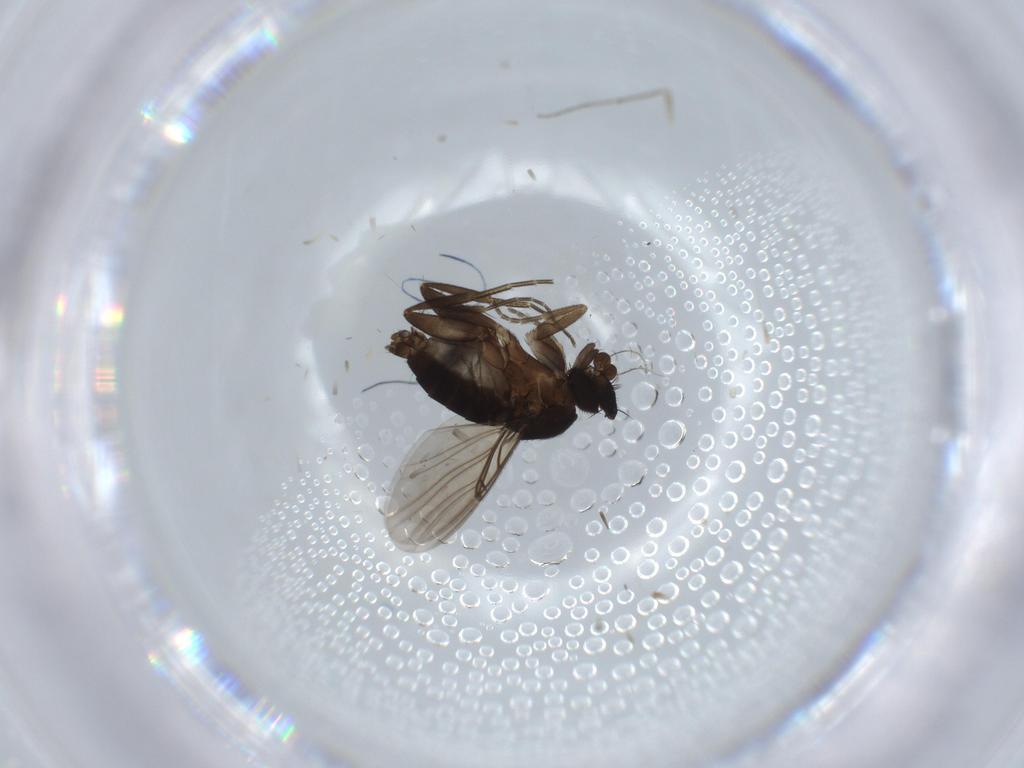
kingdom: Animalia
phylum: Arthropoda
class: Insecta
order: Diptera
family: Phoridae
